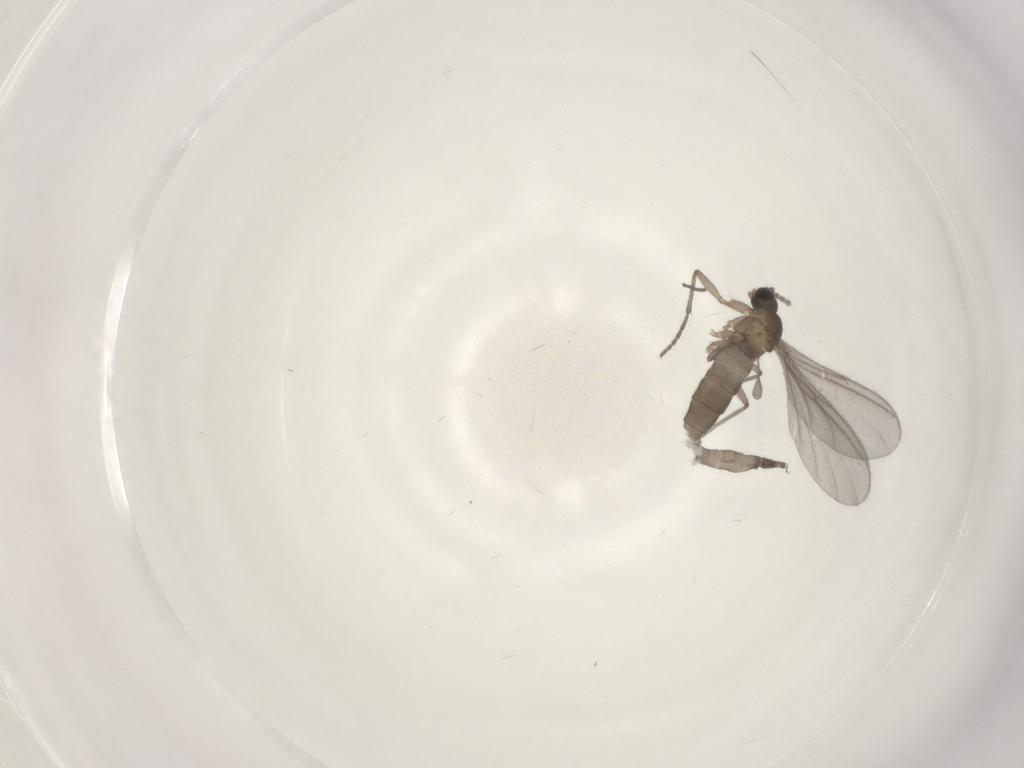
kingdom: Animalia
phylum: Arthropoda
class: Insecta
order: Diptera
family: Sciaridae
